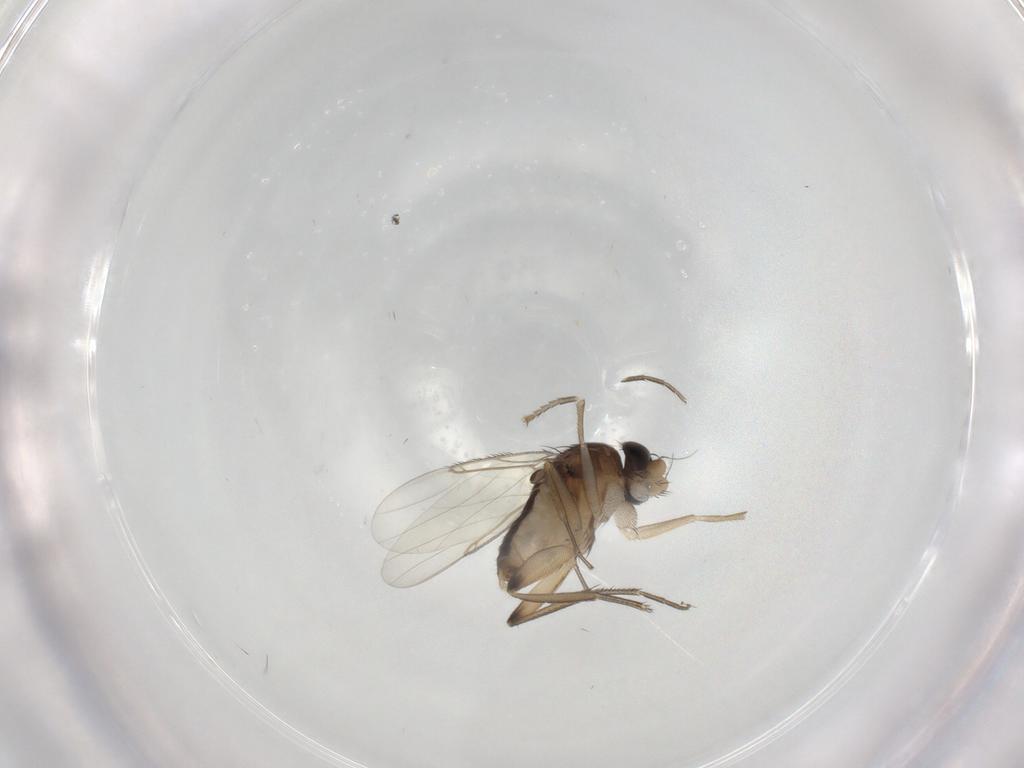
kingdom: Animalia
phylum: Arthropoda
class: Insecta
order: Diptera
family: Phoridae
